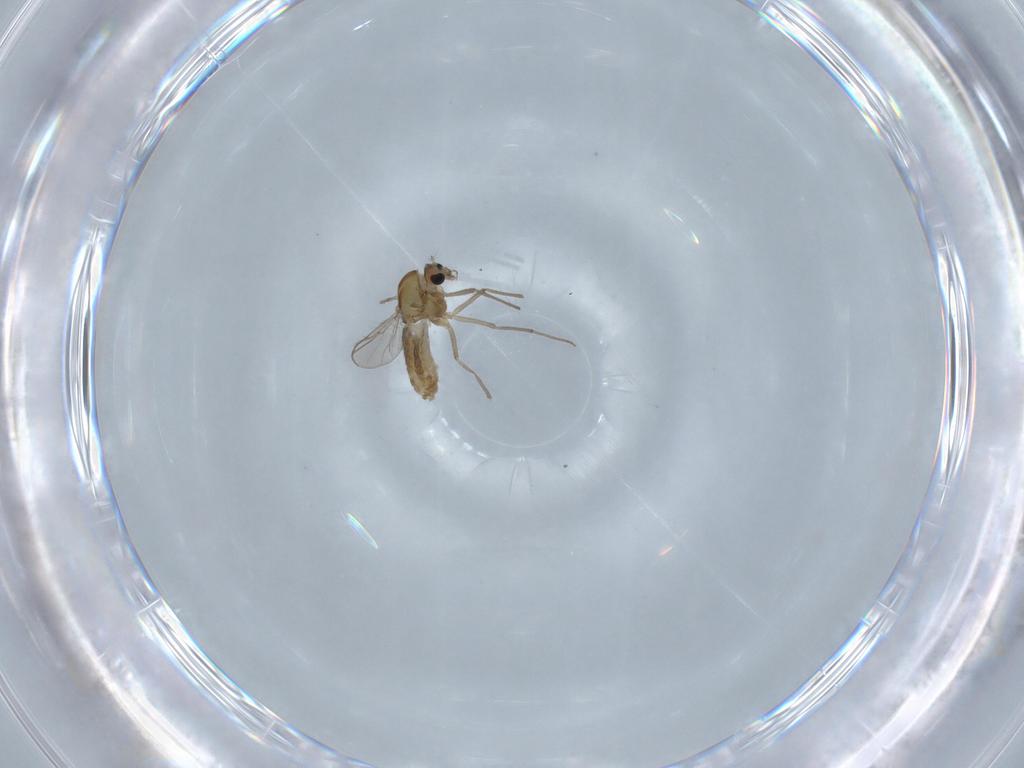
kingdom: Animalia
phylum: Arthropoda
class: Insecta
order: Diptera
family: Chironomidae
